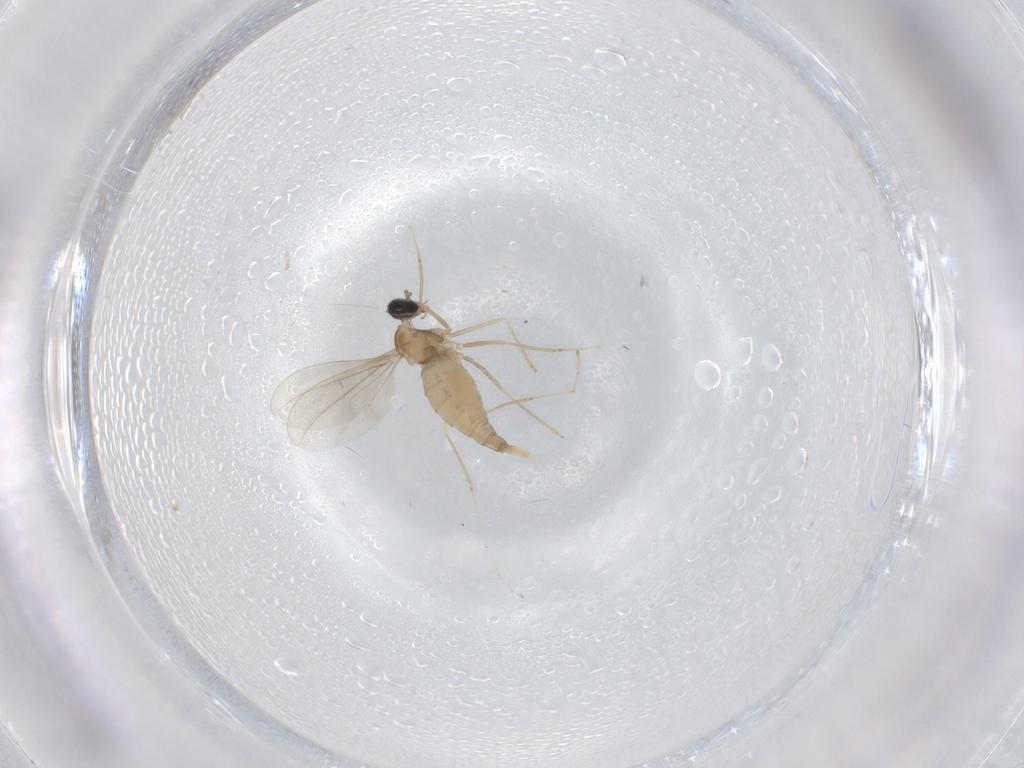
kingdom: Animalia
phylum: Arthropoda
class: Insecta
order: Diptera
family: Cecidomyiidae
